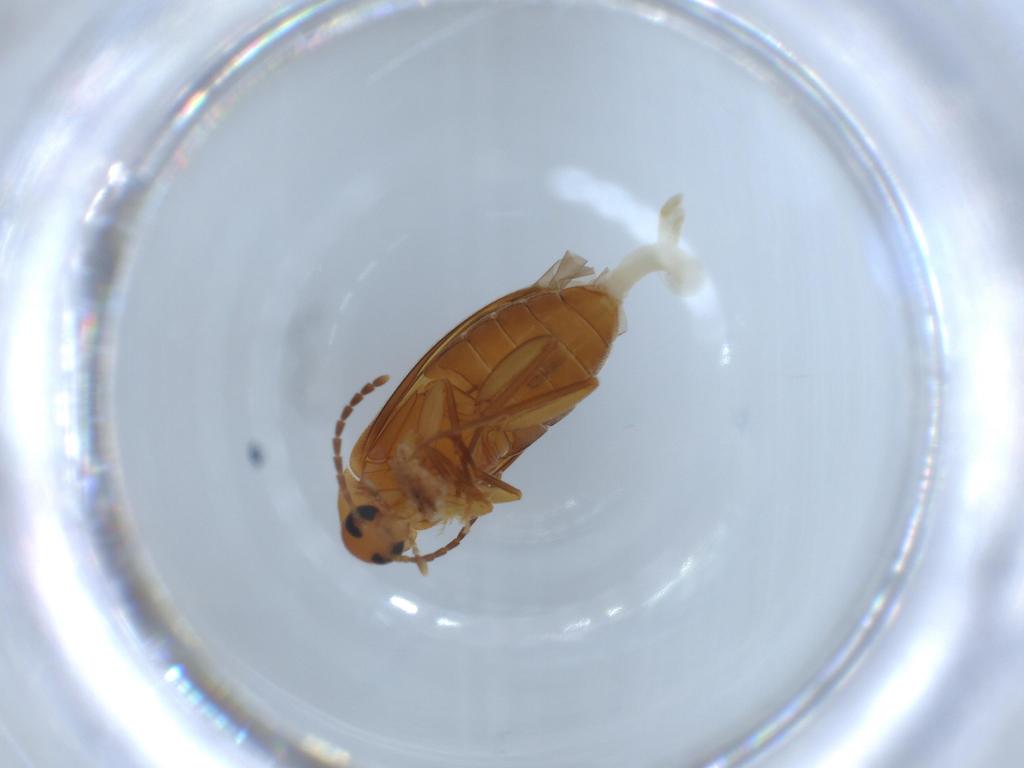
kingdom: Animalia
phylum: Arthropoda
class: Insecta
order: Coleoptera
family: Scraptiidae
